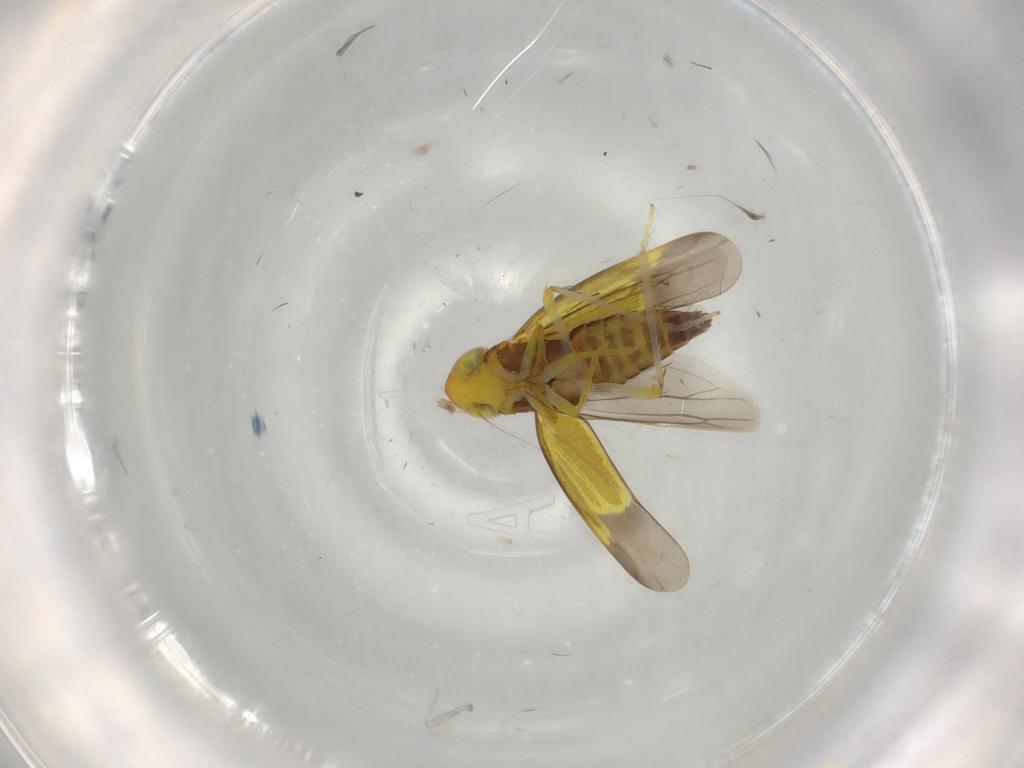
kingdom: Animalia
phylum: Arthropoda
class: Insecta
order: Hemiptera
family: Cicadellidae
